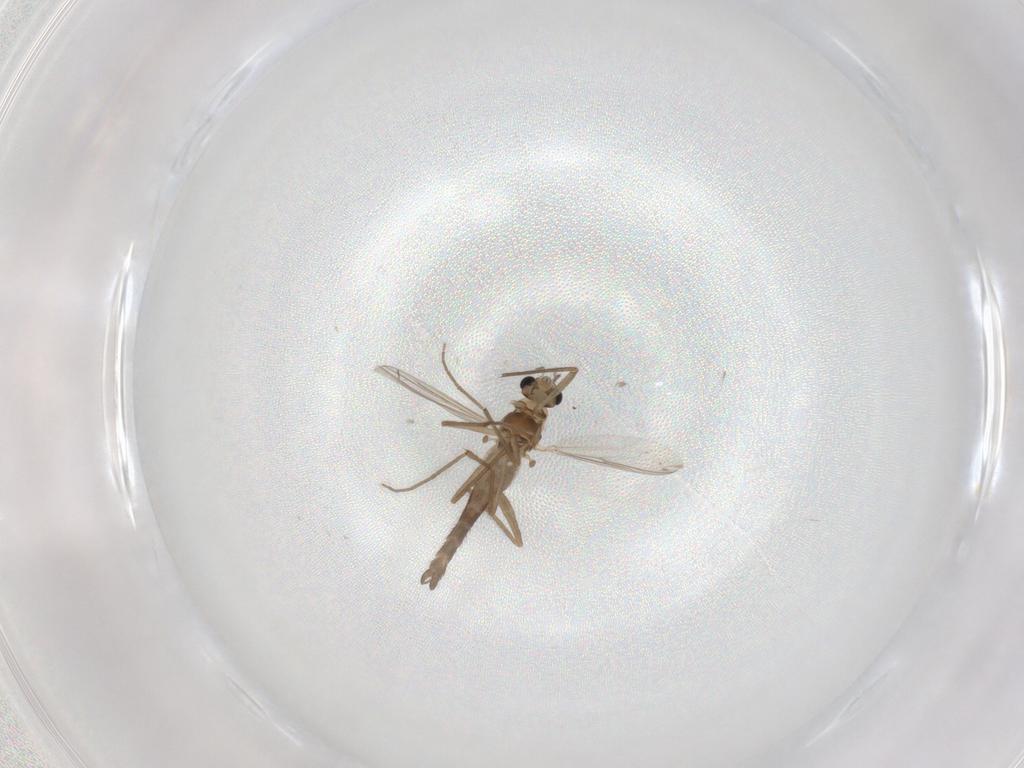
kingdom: Animalia
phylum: Arthropoda
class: Insecta
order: Diptera
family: Chironomidae
